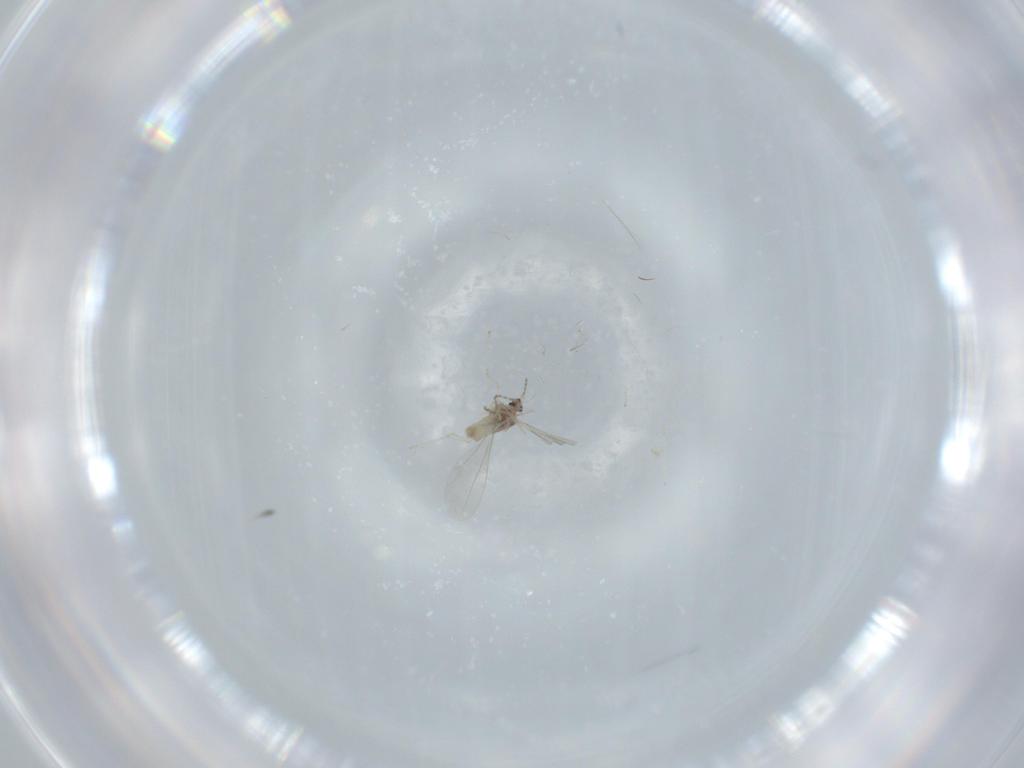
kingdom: Animalia
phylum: Arthropoda
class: Insecta
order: Diptera
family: Cecidomyiidae
